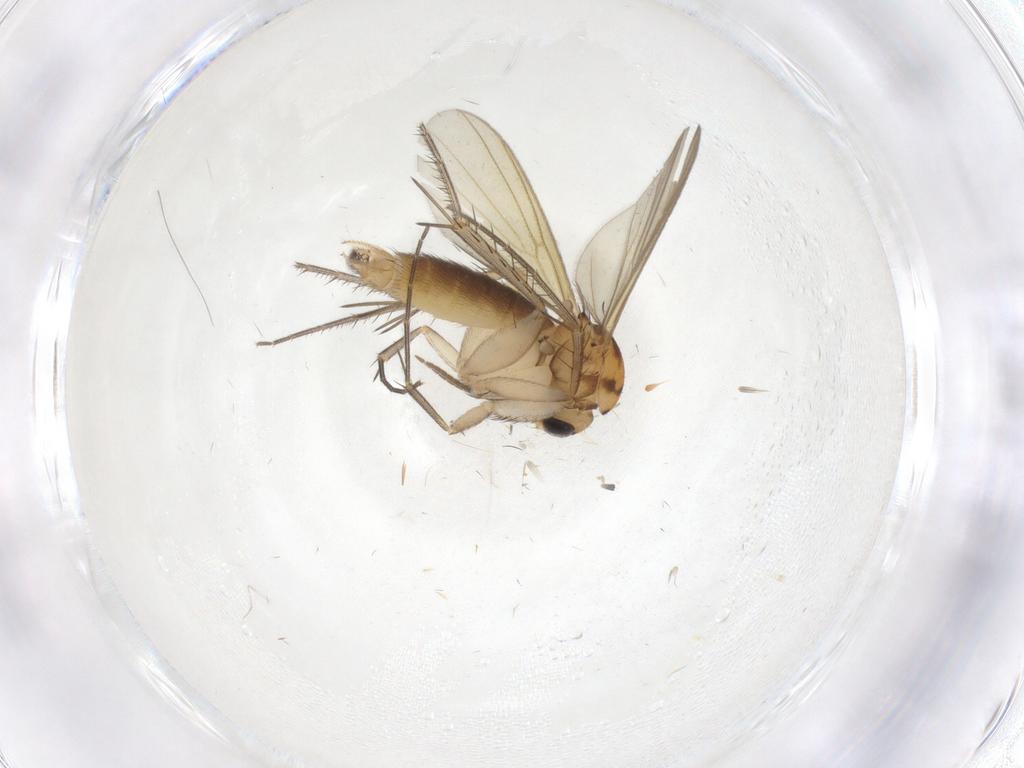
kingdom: Animalia
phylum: Arthropoda
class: Insecta
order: Diptera
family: Mycetophilidae
